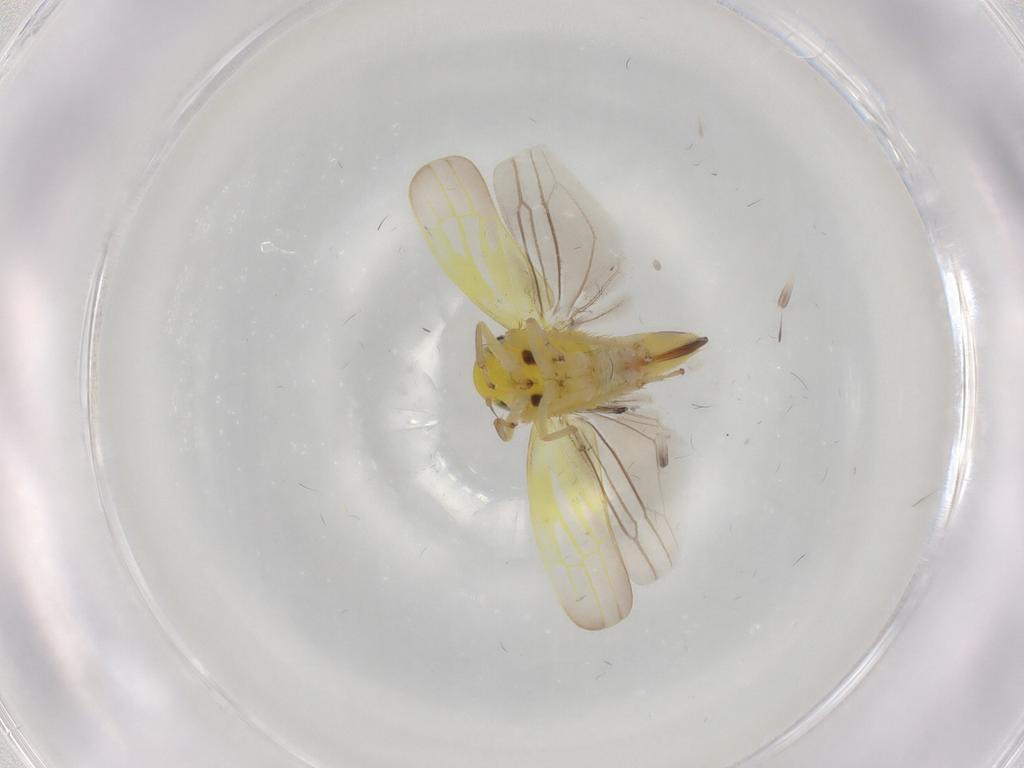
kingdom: Animalia
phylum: Arthropoda
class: Insecta
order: Hemiptera
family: Cicadellidae
